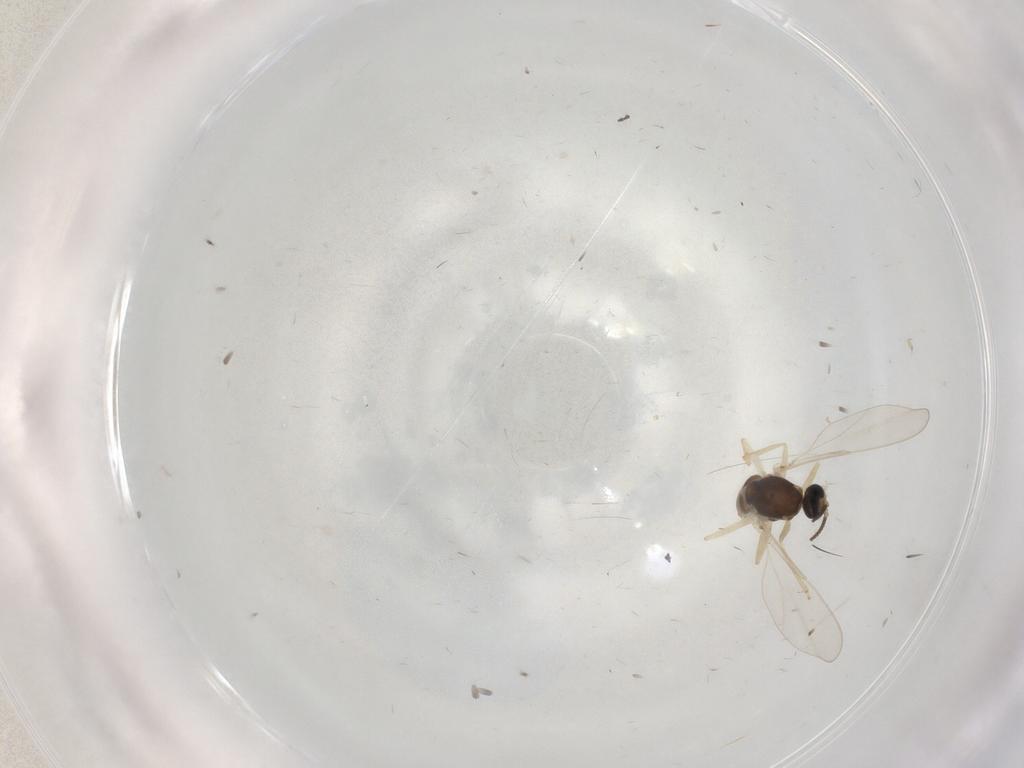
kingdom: Animalia
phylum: Arthropoda
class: Insecta
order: Diptera
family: Cecidomyiidae
